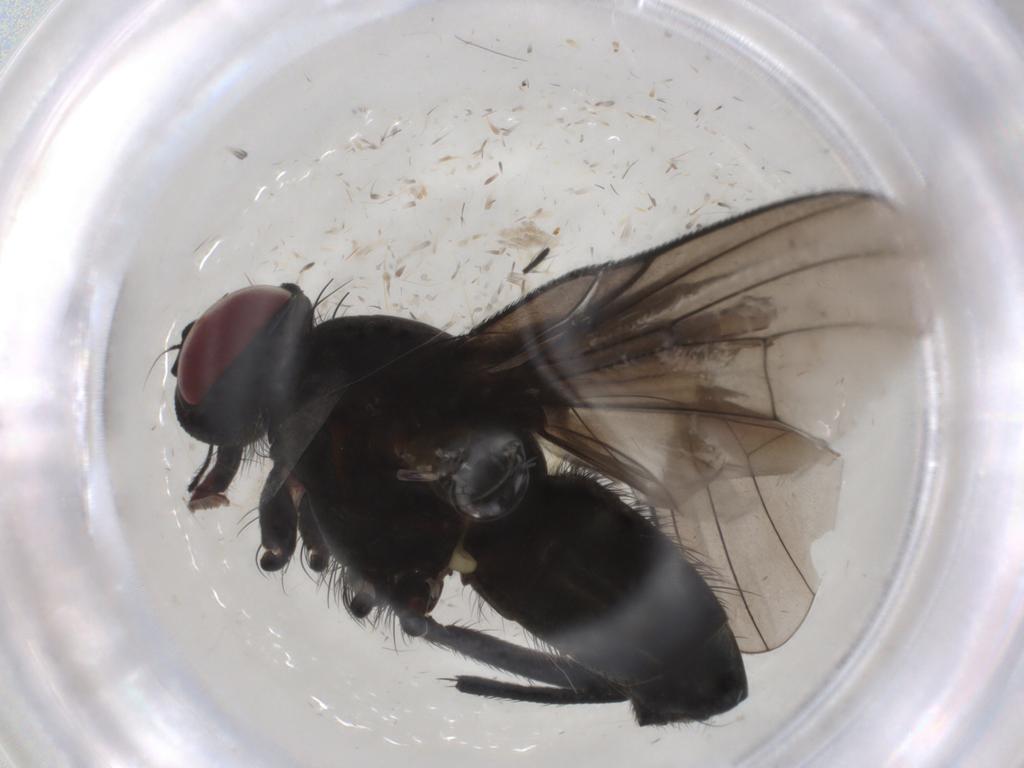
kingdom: Animalia
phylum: Arthropoda
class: Insecta
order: Diptera
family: Muscidae
